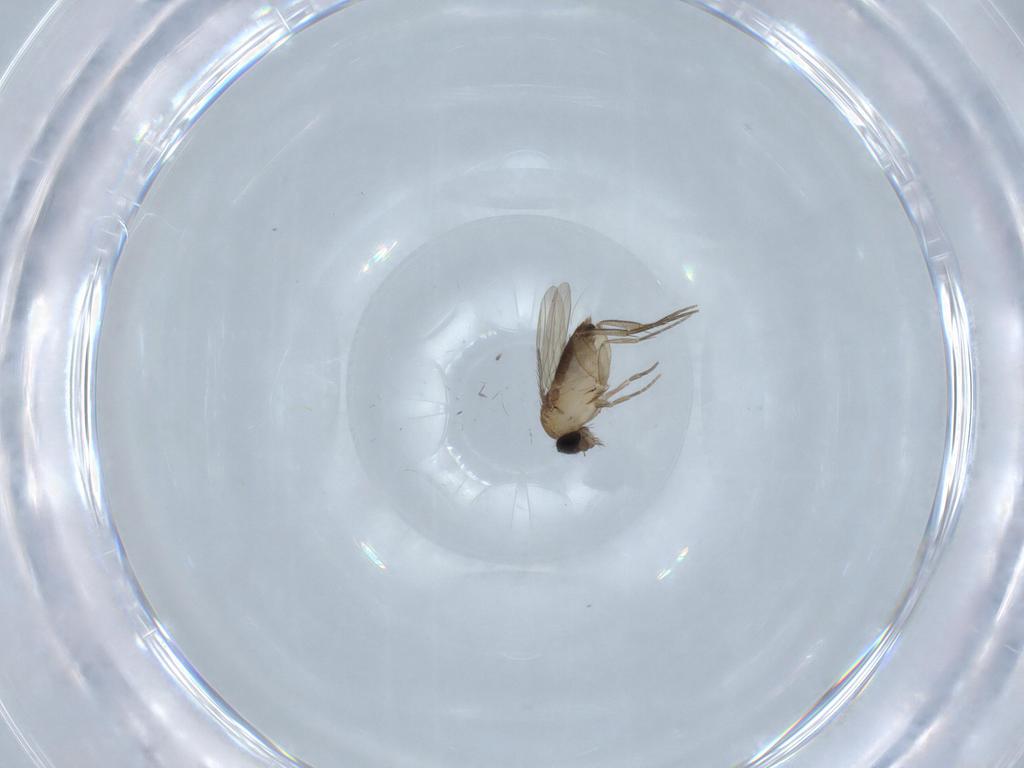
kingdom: Animalia
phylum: Arthropoda
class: Insecta
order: Diptera
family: Phoridae
